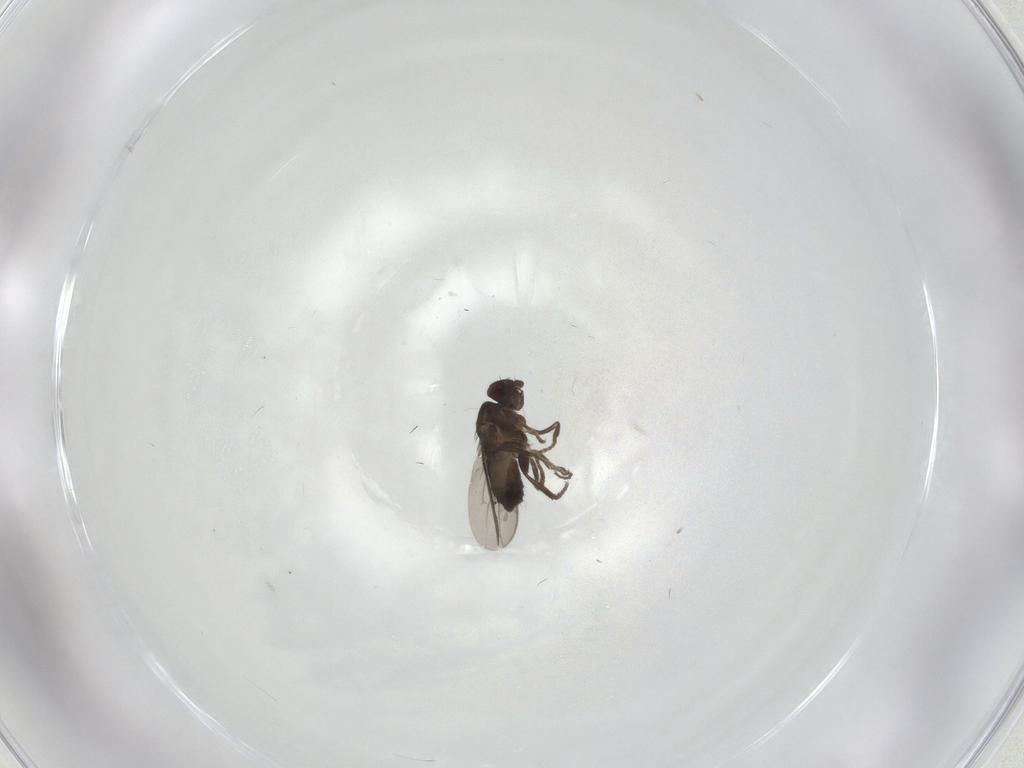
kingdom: Animalia
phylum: Arthropoda
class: Insecta
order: Diptera
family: Sphaeroceridae
